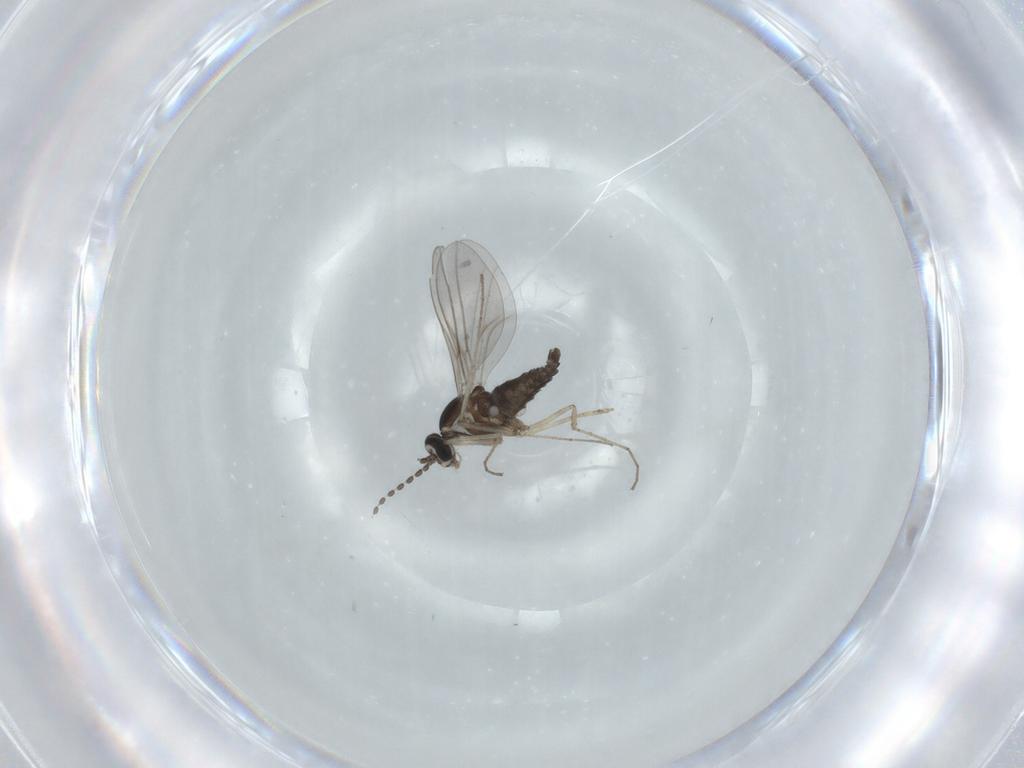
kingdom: Animalia
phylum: Arthropoda
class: Insecta
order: Diptera
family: Cecidomyiidae
